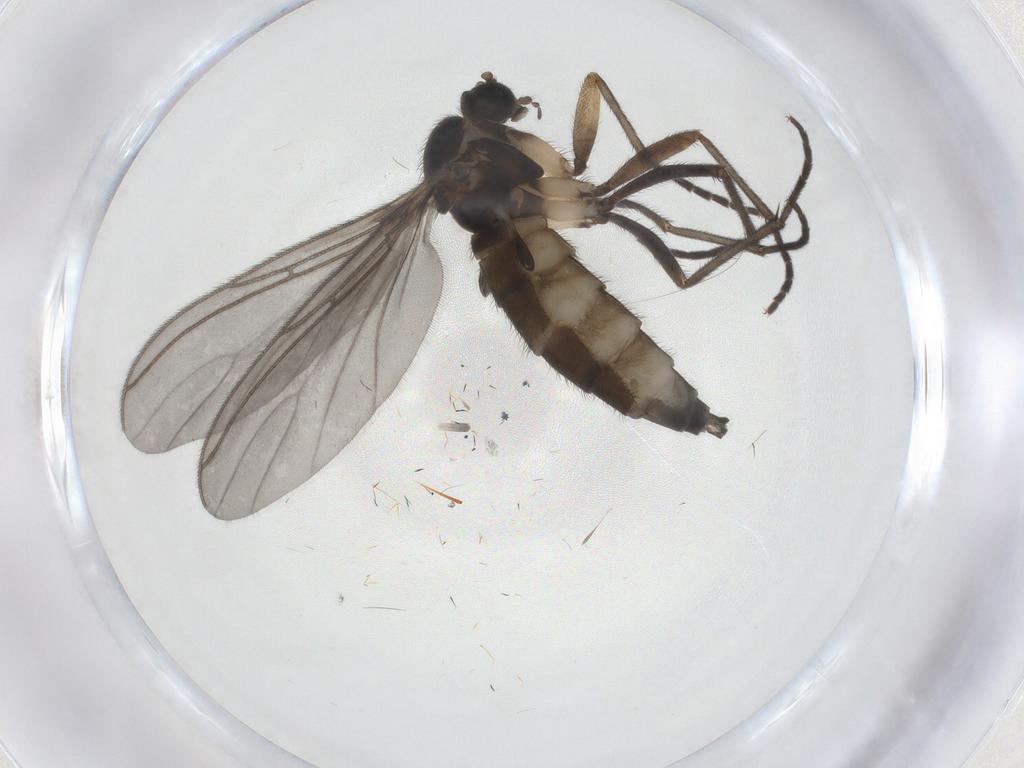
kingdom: Animalia
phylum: Arthropoda
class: Insecta
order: Diptera
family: Sciaridae
